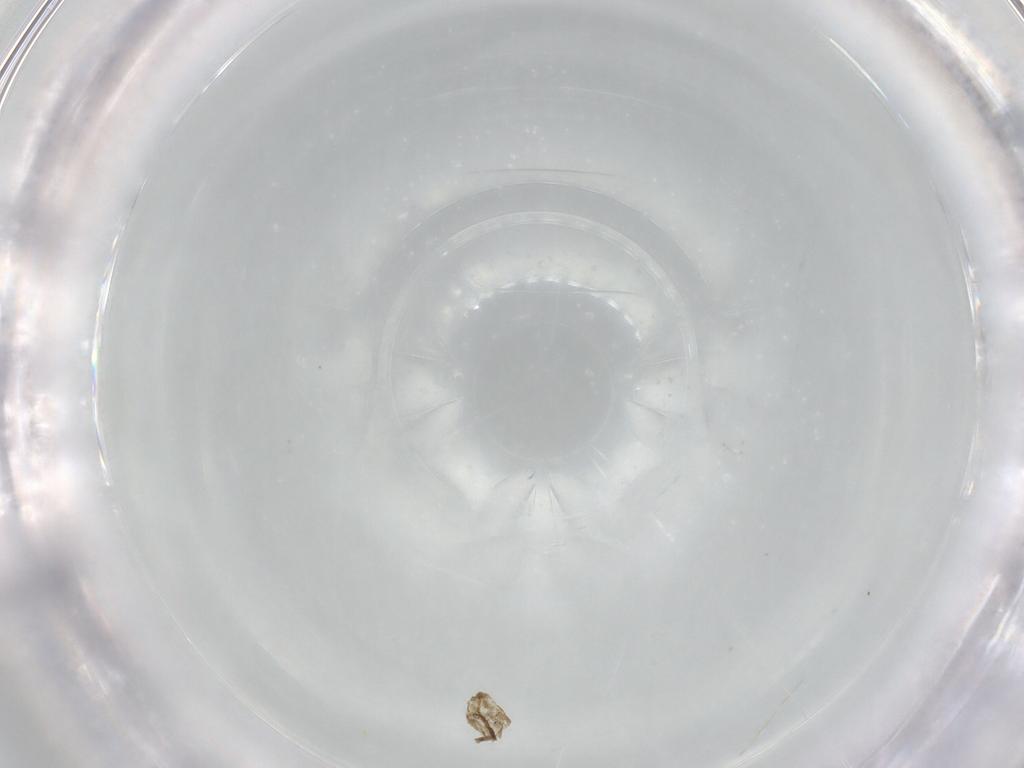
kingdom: Animalia
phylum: Arthropoda
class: Insecta
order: Diptera
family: Drosophilidae
